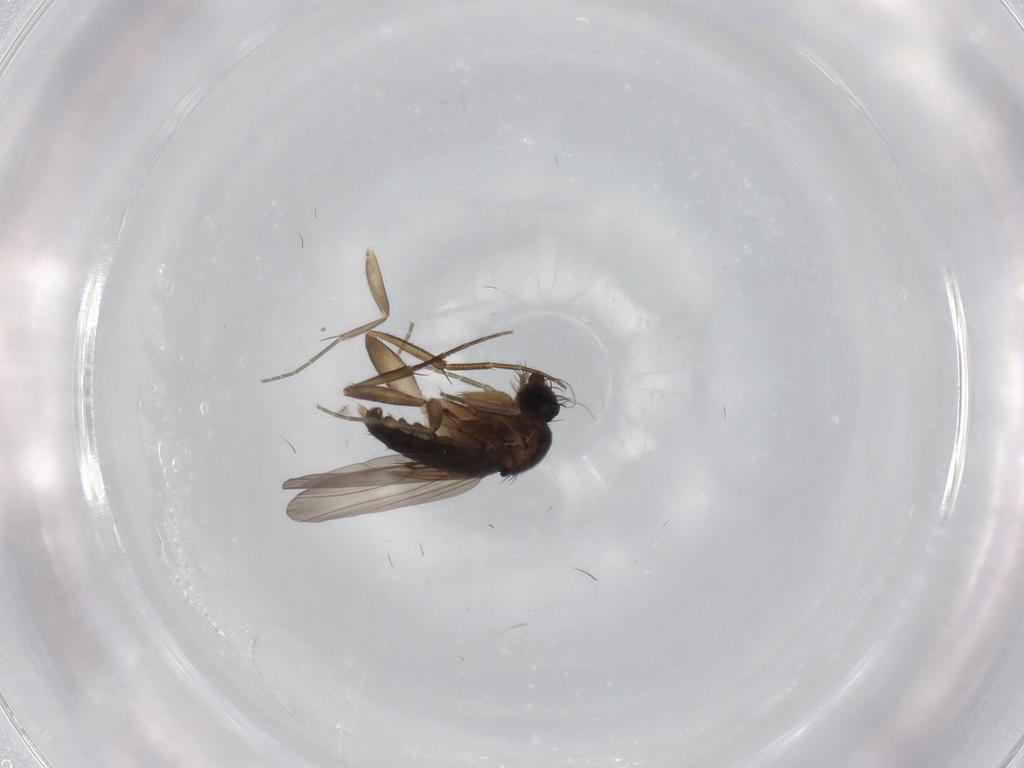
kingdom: Animalia
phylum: Arthropoda
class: Insecta
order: Diptera
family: Phoridae
